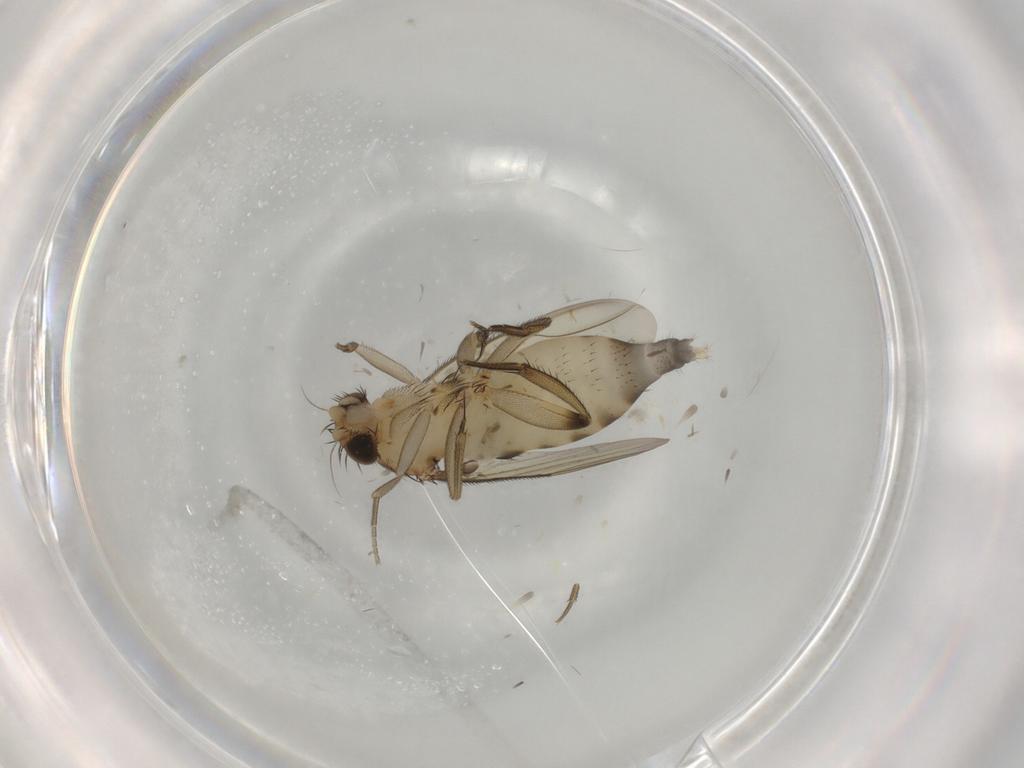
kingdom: Animalia
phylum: Arthropoda
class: Insecta
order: Diptera
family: Phoridae
